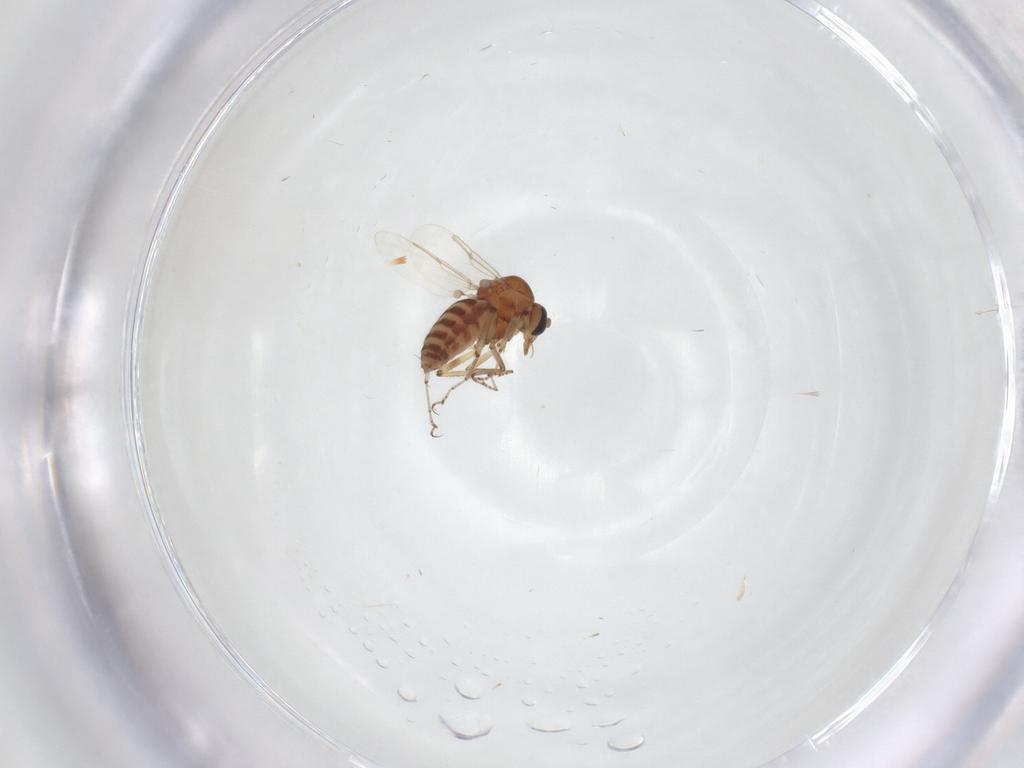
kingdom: Animalia
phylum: Arthropoda
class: Insecta
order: Diptera
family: Ceratopogonidae
